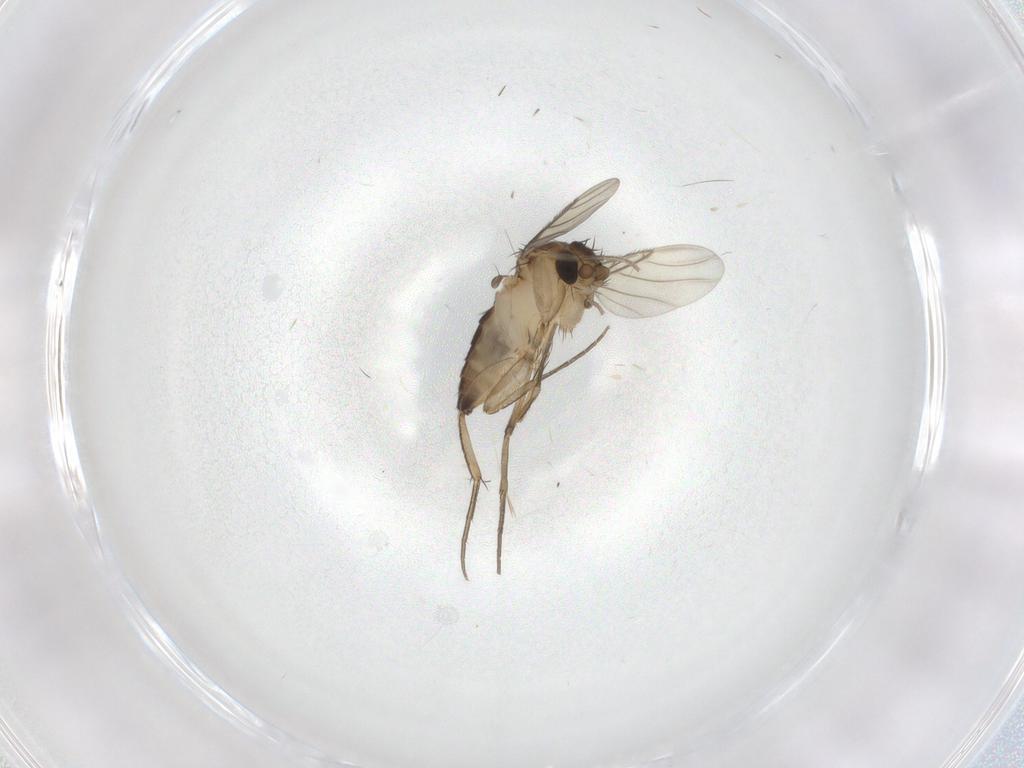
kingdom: Animalia
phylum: Arthropoda
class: Insecta
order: Diptera
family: Phoridae
